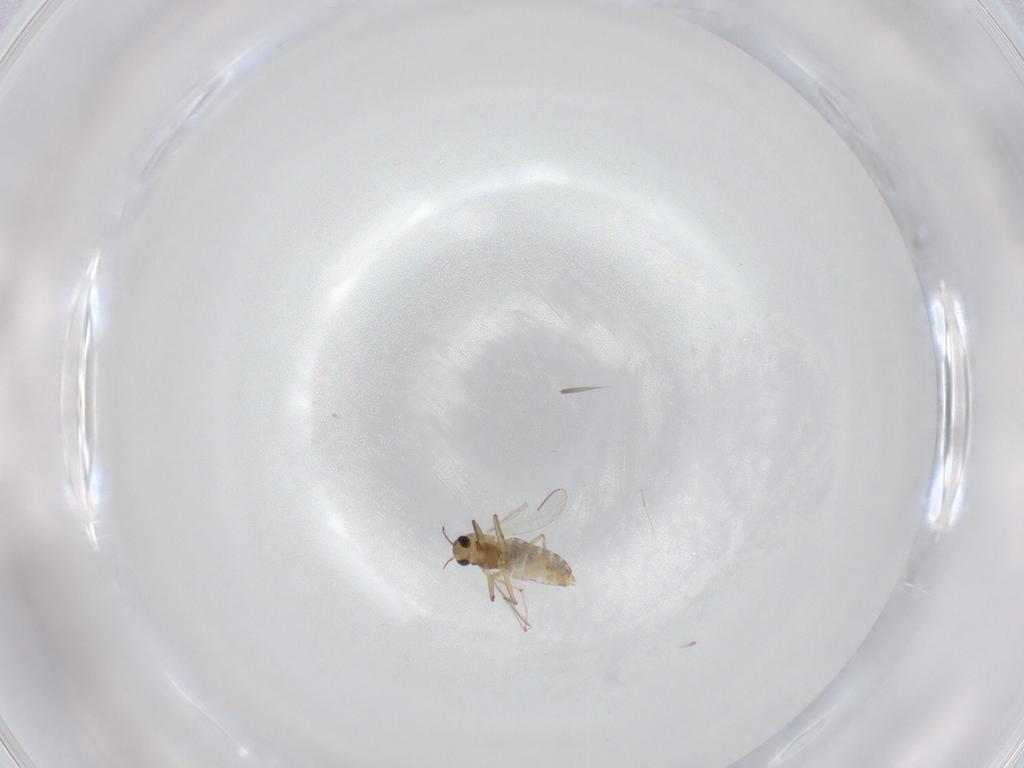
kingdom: Animalia
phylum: Arthropoda
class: Insecta
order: Diptera
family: Chironomidae
